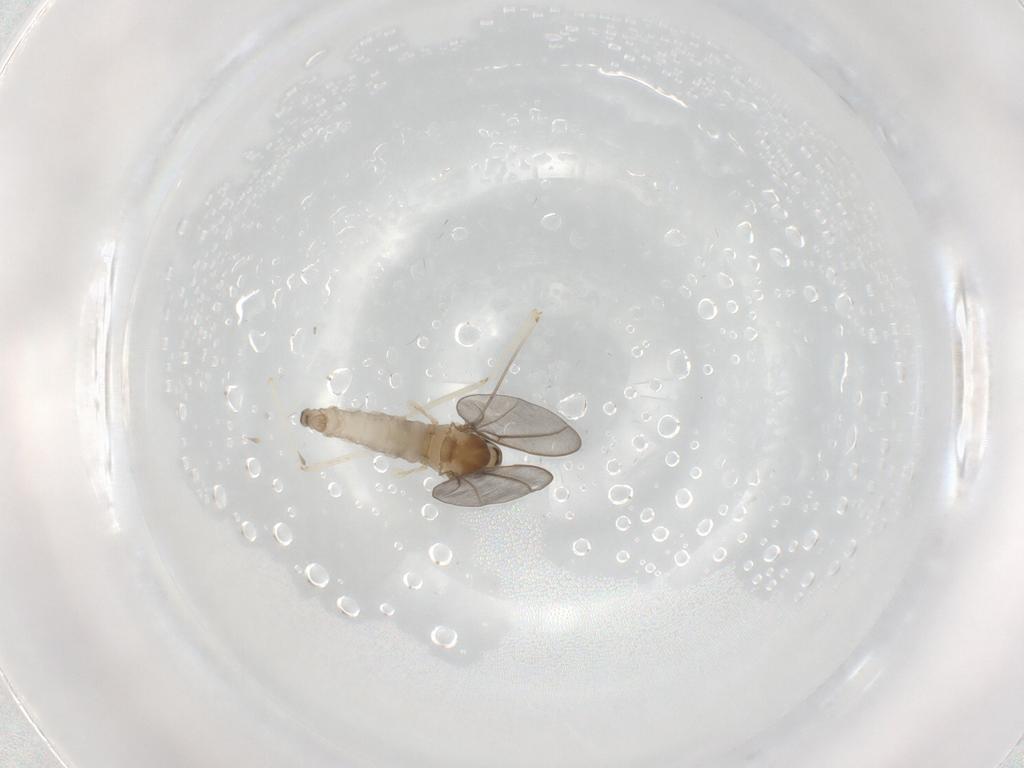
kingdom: Animalia
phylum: Arthropoda
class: Insecta
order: Diptera
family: Cecidomyiidae
